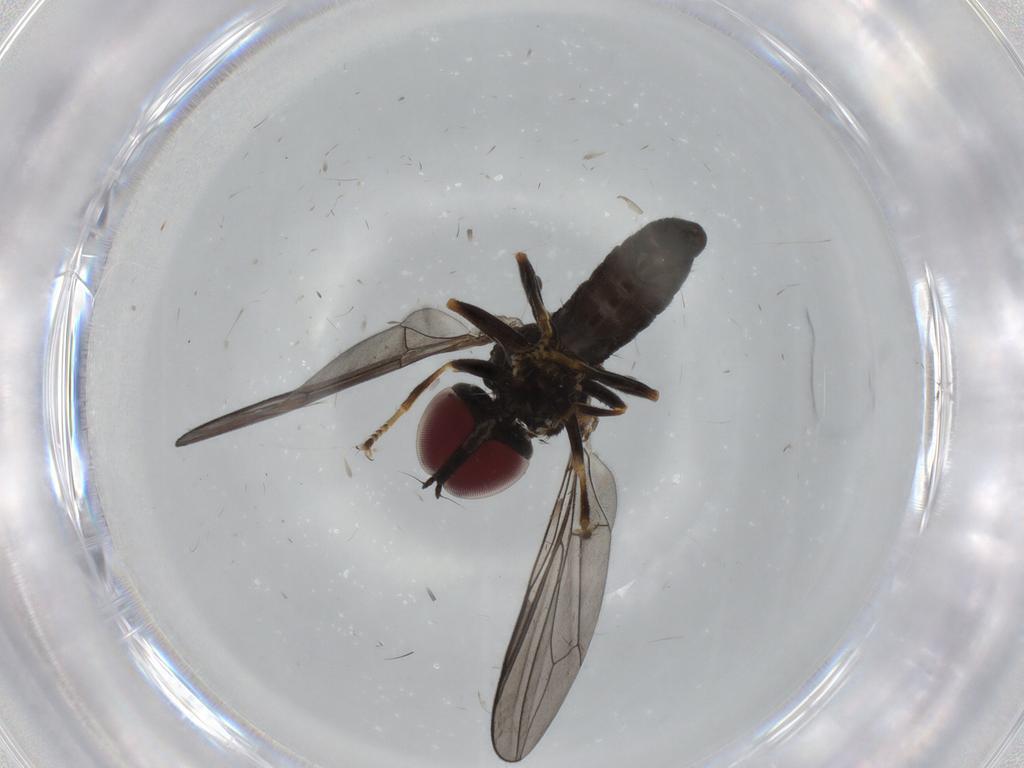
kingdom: Animalia
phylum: Arthropoda
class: Insecta
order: Diptera
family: Pipunculidae
